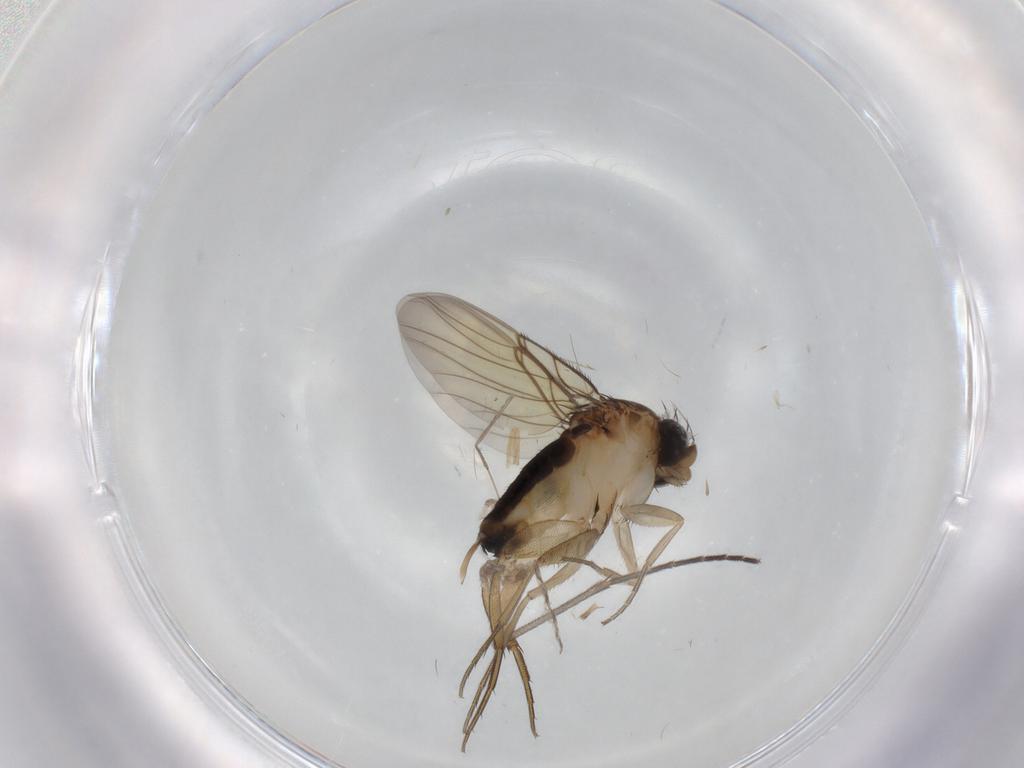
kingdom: Animalia
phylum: Arthropoda
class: Insecta
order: Diptera
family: Phoridae
